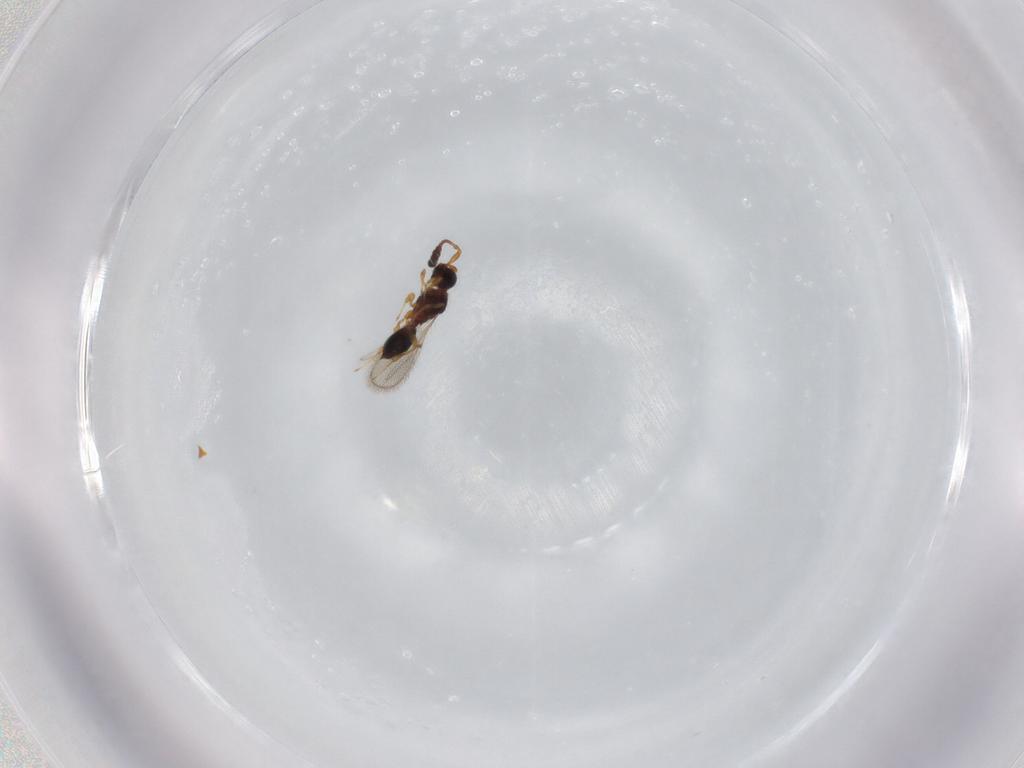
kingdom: Animalia
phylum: Arthropoda
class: Insecta
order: Hymenoptera
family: Diapriidae
